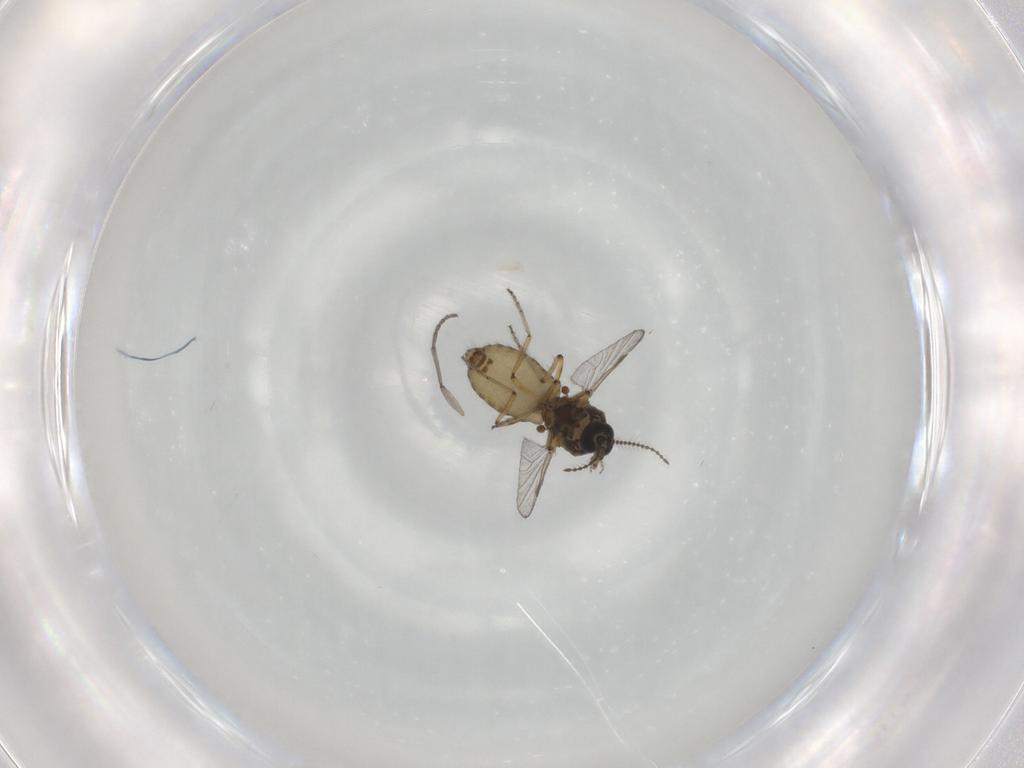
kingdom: Animalia
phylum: Arthropoda
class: Insecta
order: Diptera
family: Sciaridae
